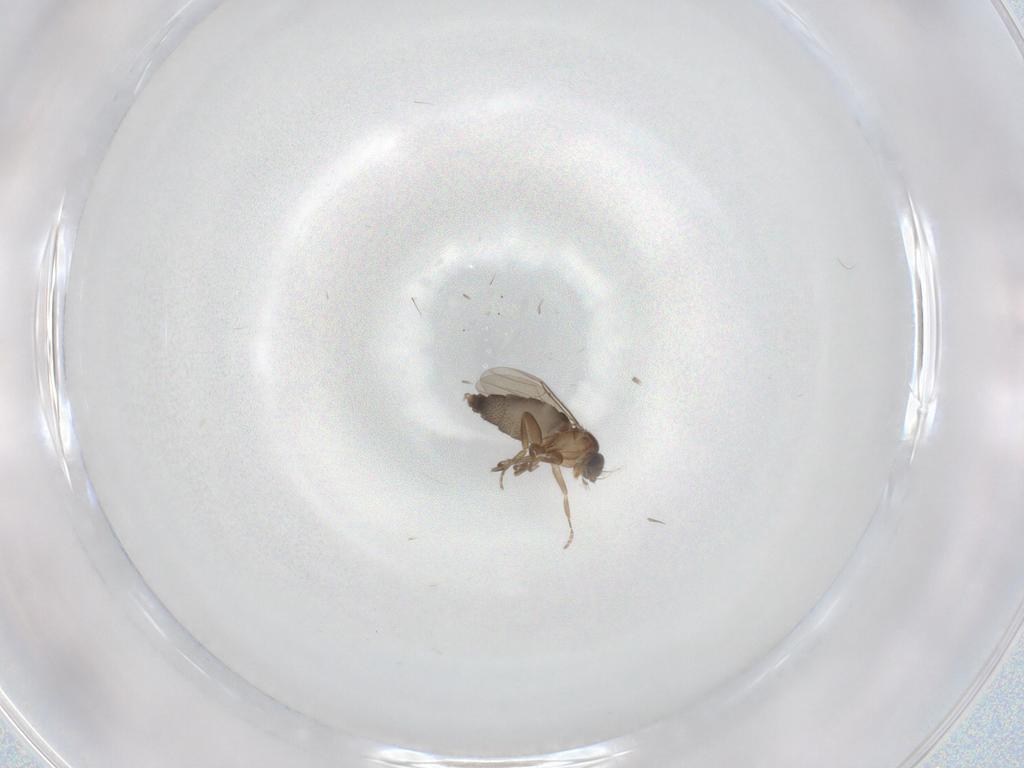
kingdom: Animalia
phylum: Arthropoda
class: Insecta
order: Diptera
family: Phoridae
